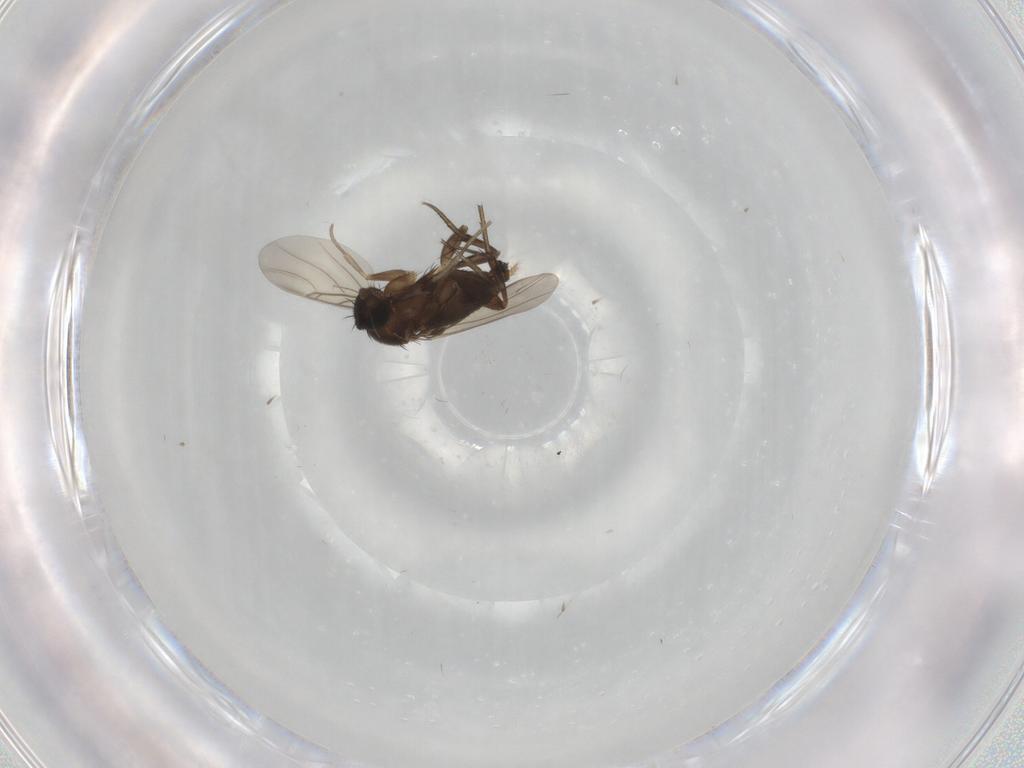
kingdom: Animalia
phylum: Arthropoda
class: Insecta
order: Diptera
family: Phoridae
